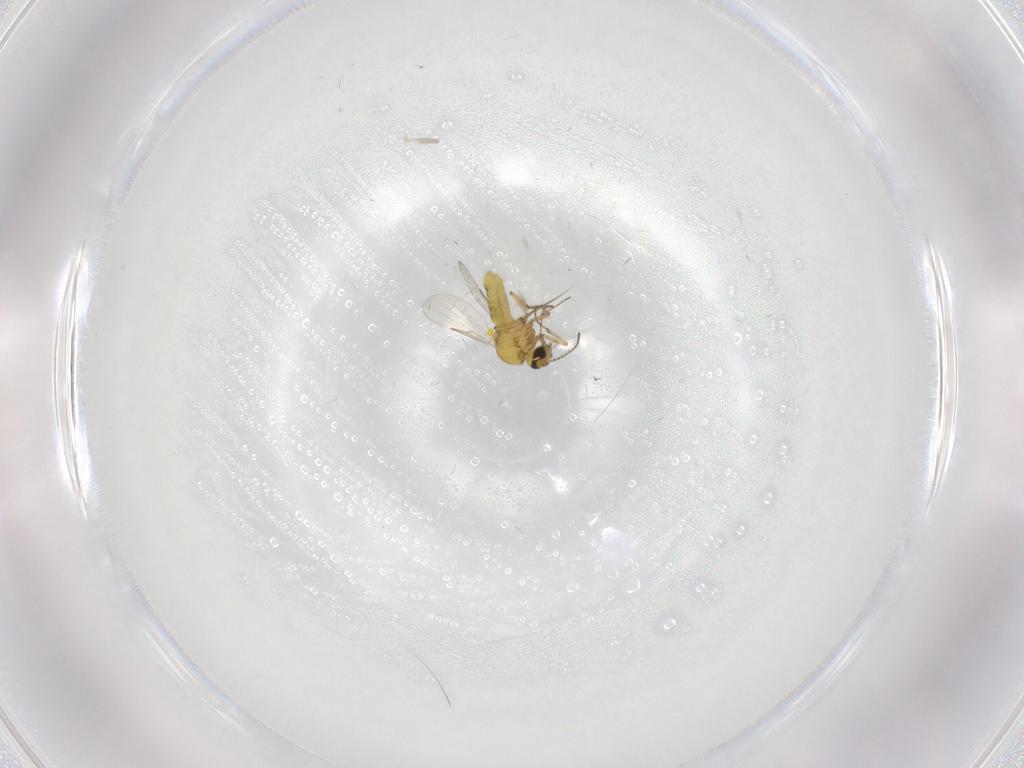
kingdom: Animalia
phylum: Arthropoda
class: Insecta
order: Diptera
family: Ceratopogonidae
